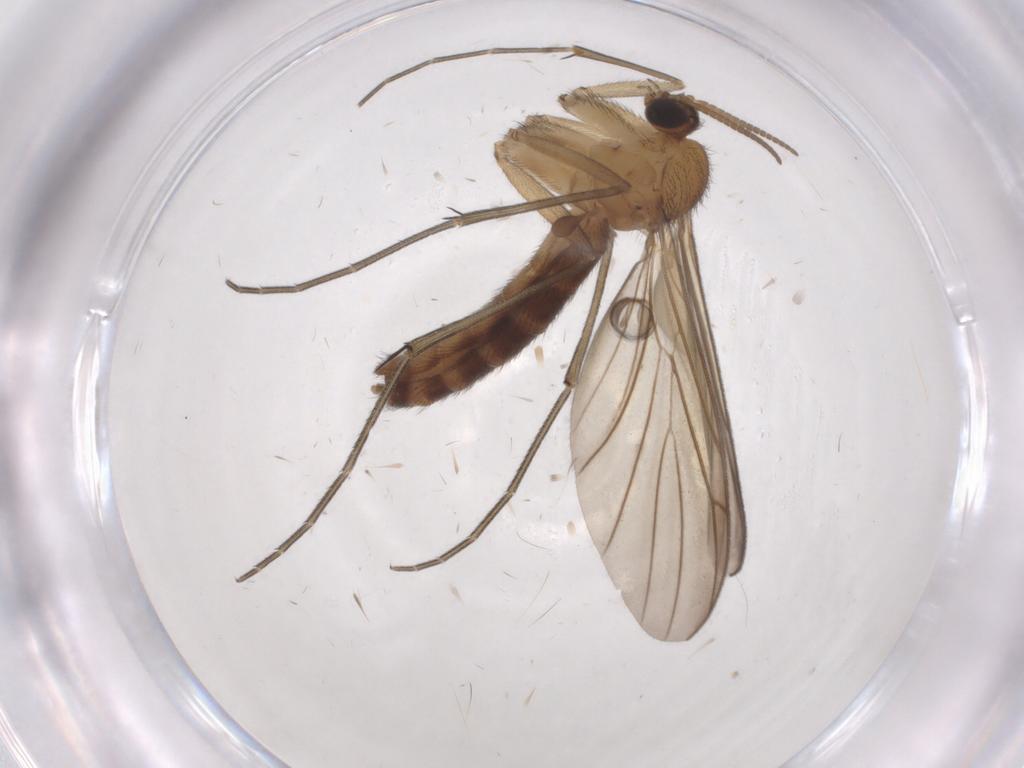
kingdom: Animalia
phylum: Arthropoda
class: Insecta
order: Diptera
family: Keroplatidae
